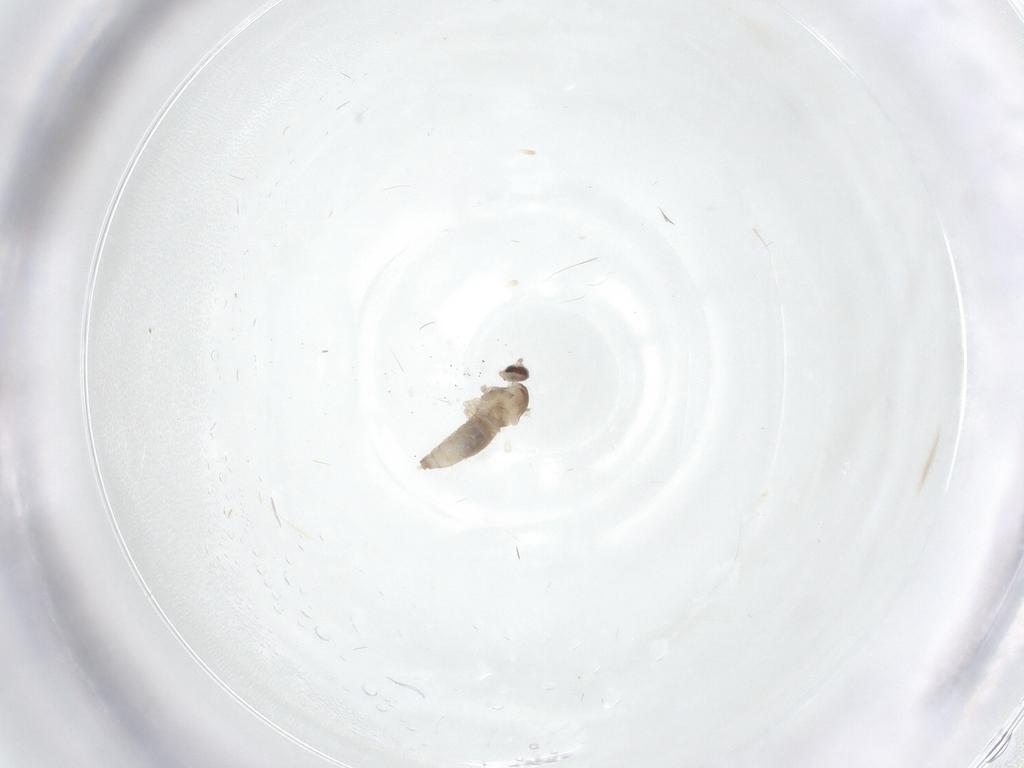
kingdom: Animalia
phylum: Arthropoda
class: Insecta
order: Diptera
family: Cecidomyiidae
